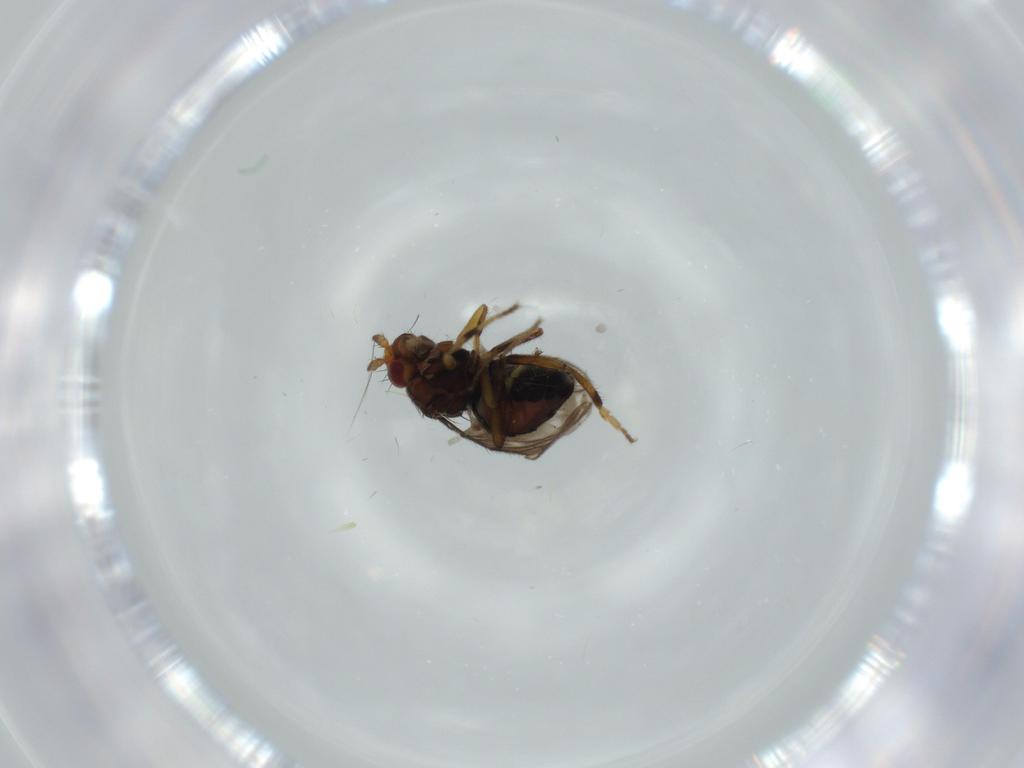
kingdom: Animalia
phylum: Arthropoda
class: Insecta
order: Diptera
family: Sphaeroceridae
